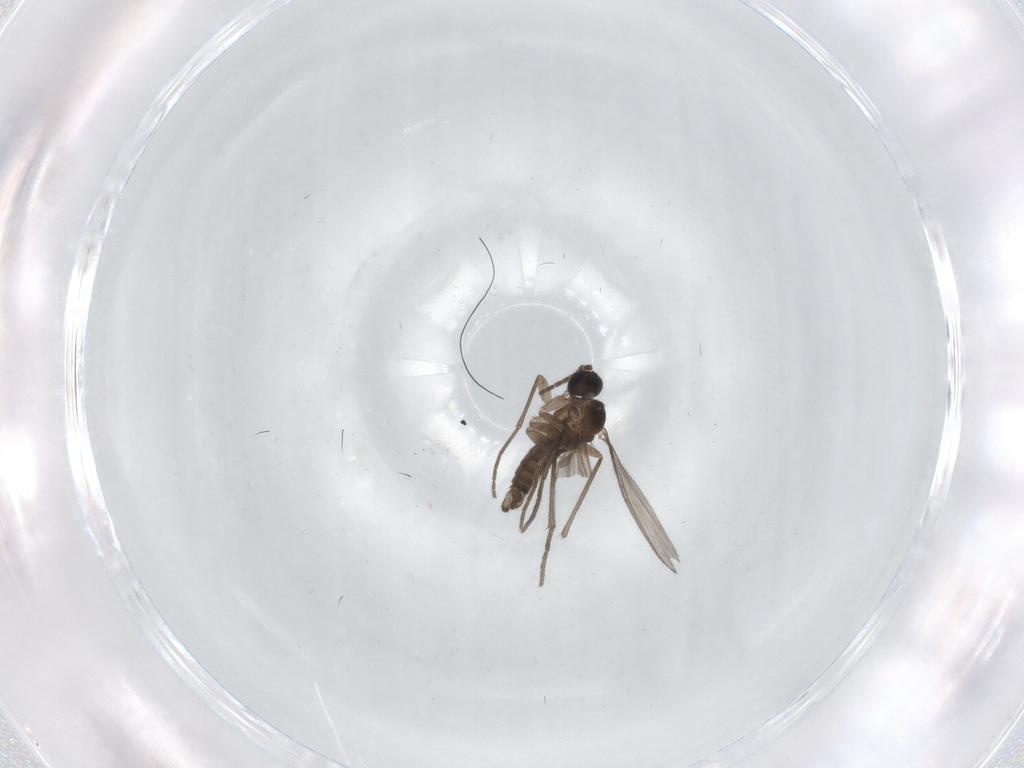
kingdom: Animalia
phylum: Arthropoda
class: Insecta
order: Diptera
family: Sciaridae
